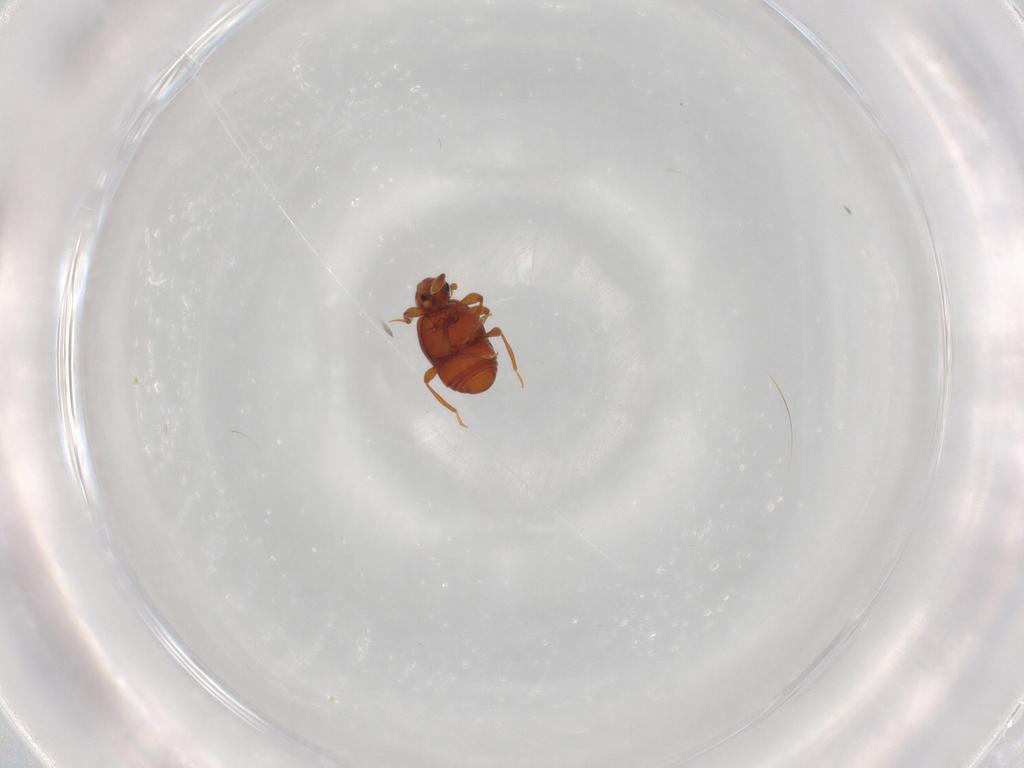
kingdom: Animalia
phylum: Arthropoda
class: Insecta
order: Coleoptera
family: Staphylinidae
